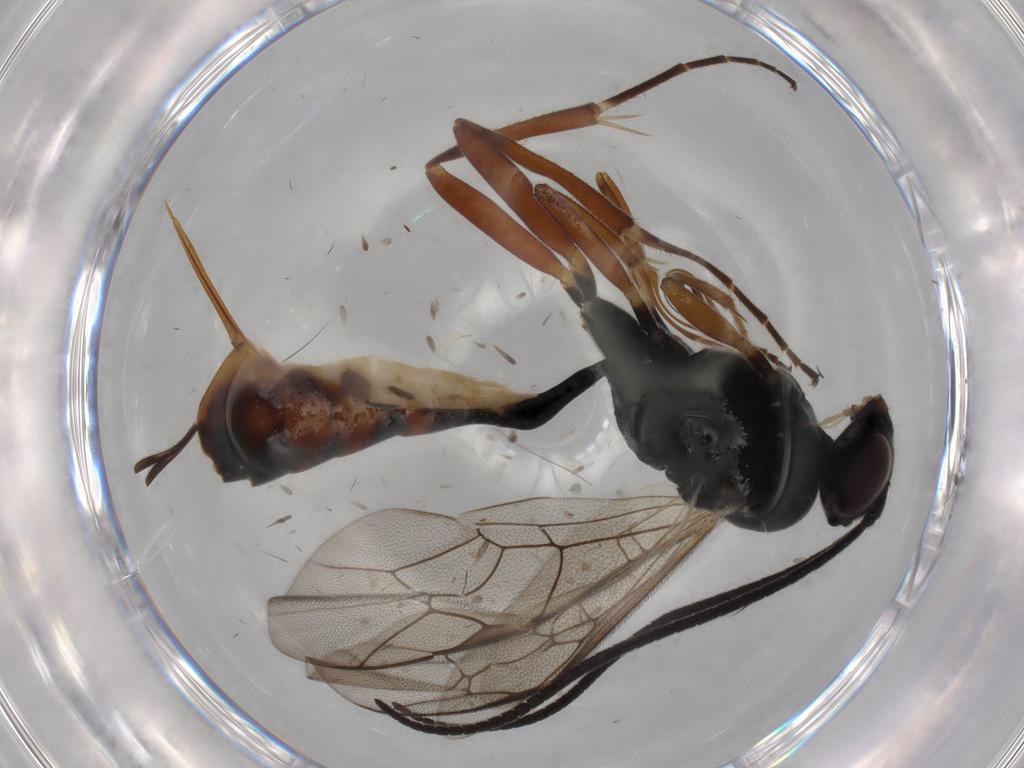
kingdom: Animalia
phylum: Arthropoda
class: Insecta
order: Hymenoptera
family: Ichneumonidae
